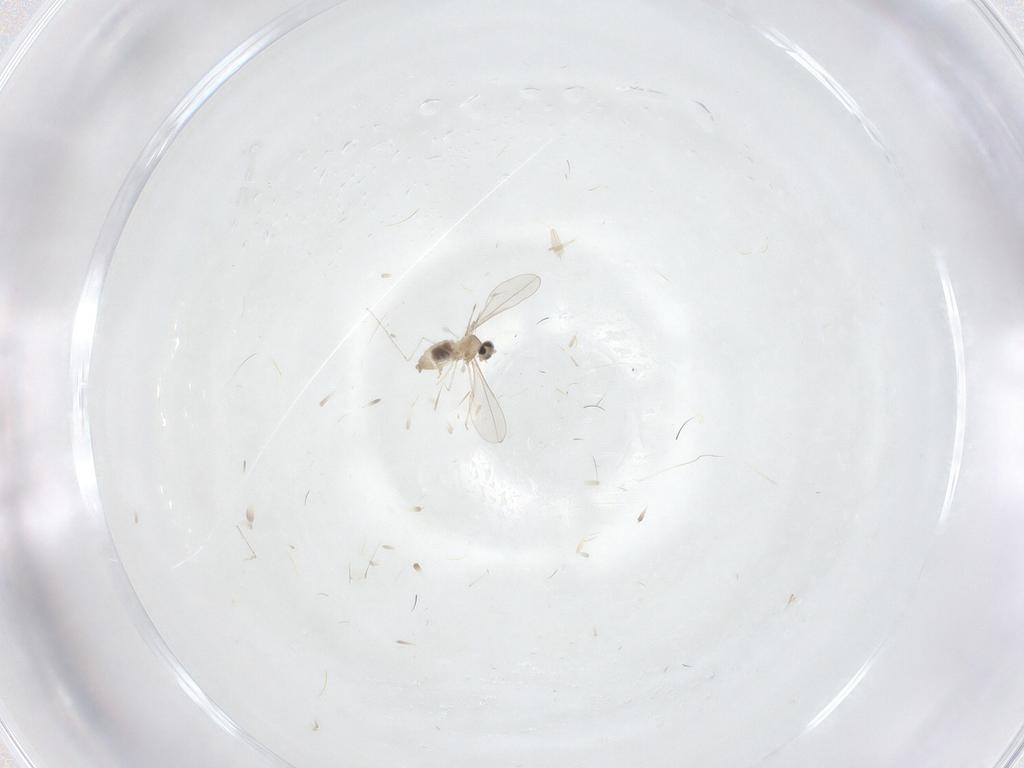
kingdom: Animalia
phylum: Arthropoda
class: Insecta
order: Diptera
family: Cecidomyiidae
